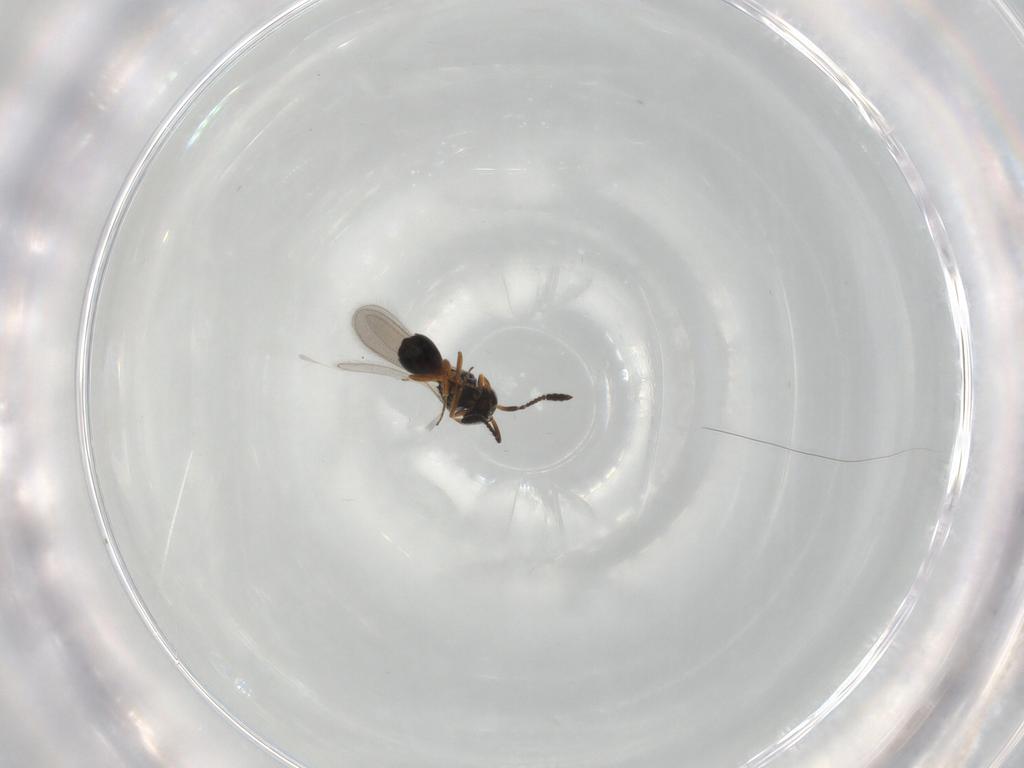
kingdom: Animalia
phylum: Arthropoda
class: Insecta
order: Hymenoptera
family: Scelionidae
